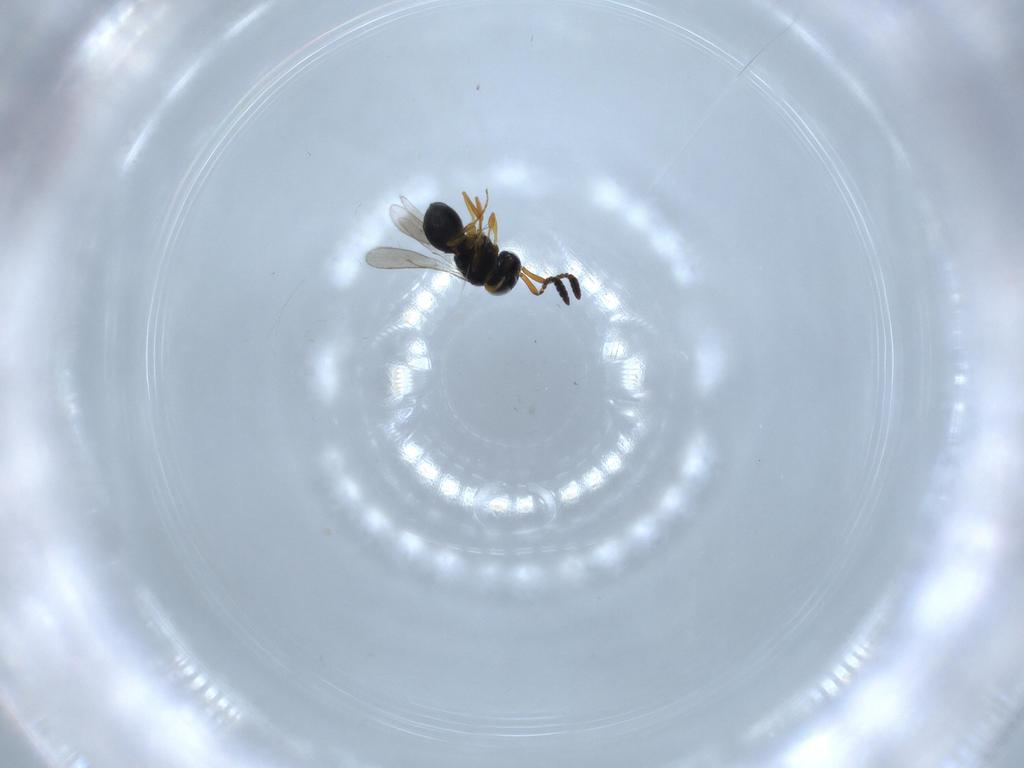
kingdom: Animalia
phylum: Arthropoda
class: Insecta
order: Hymenoptera
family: Scelionidae
